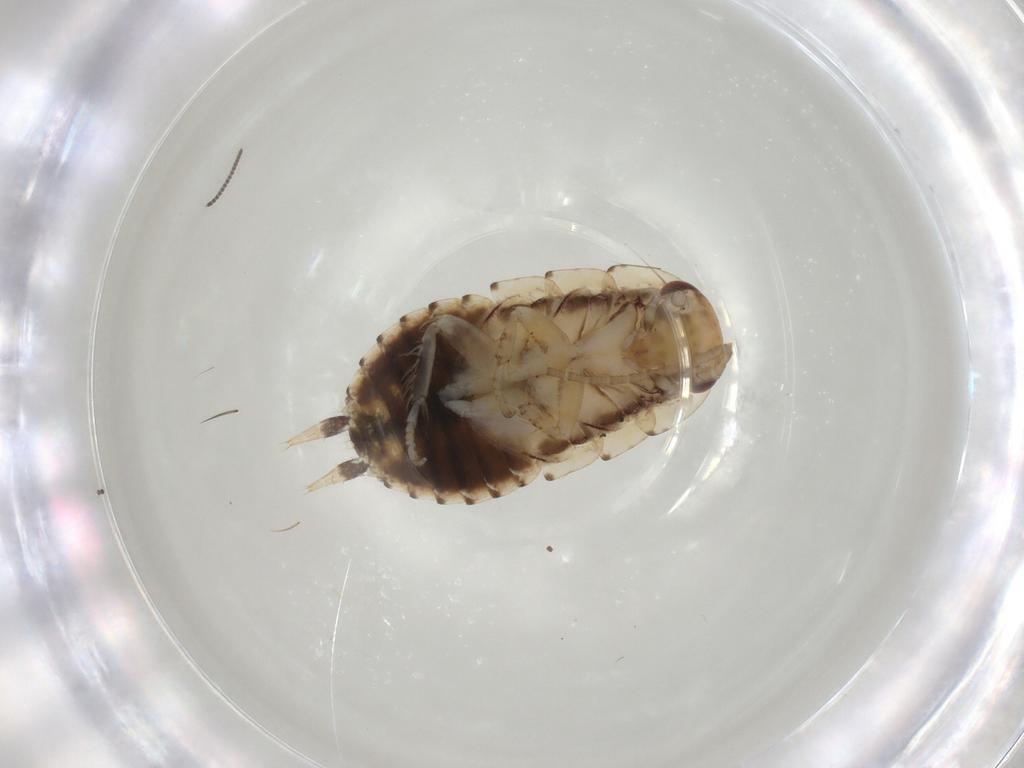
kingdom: Animalia
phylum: Arthropoda
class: Insecta
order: Blattodea
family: Blaberidae
